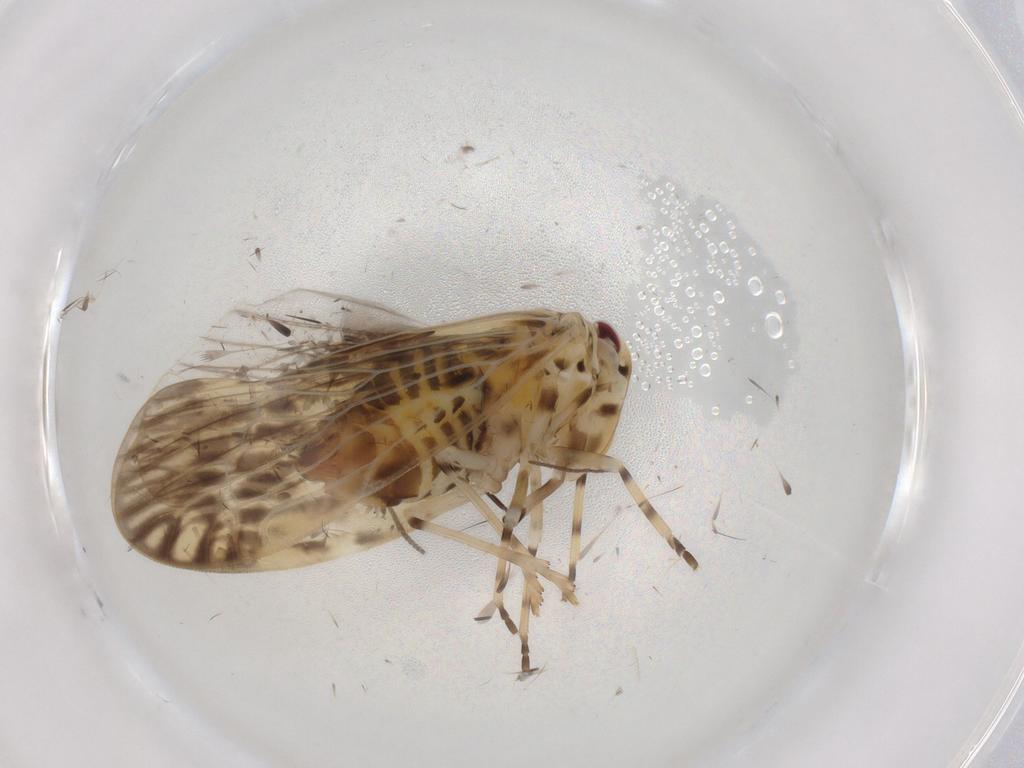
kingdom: Animalia
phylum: Arthropoda
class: Insecta
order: Hemiptera
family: Derbidae
